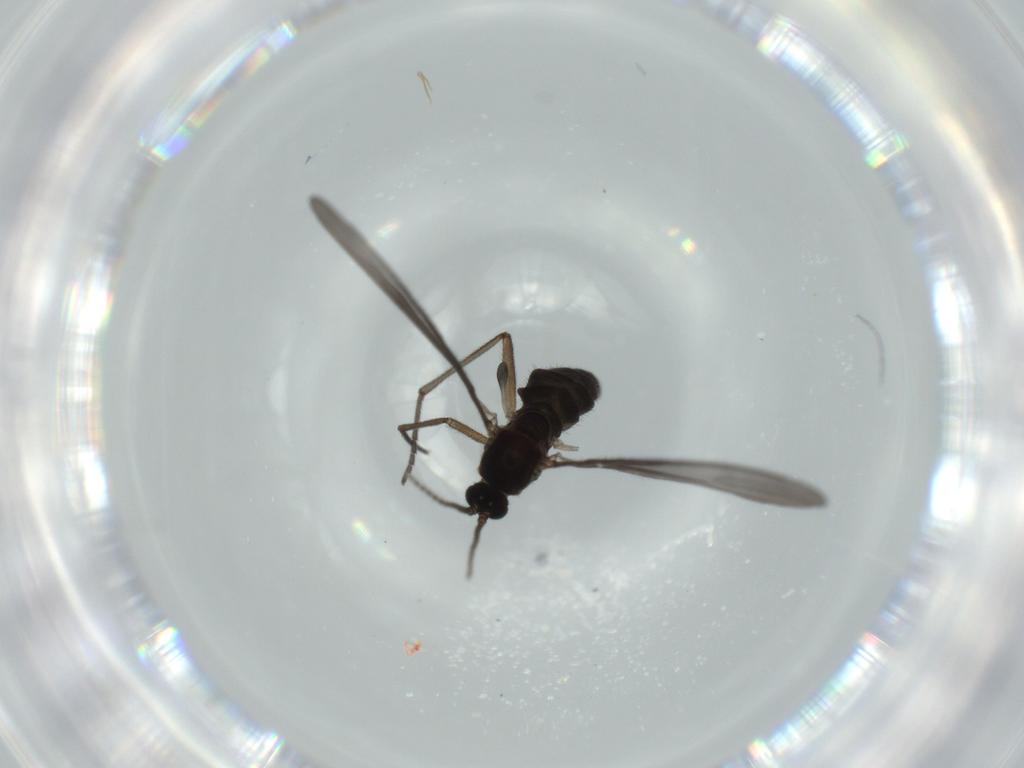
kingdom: Animalia
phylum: Arthropoda
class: Insecta
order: Diptera
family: Sciaridae
